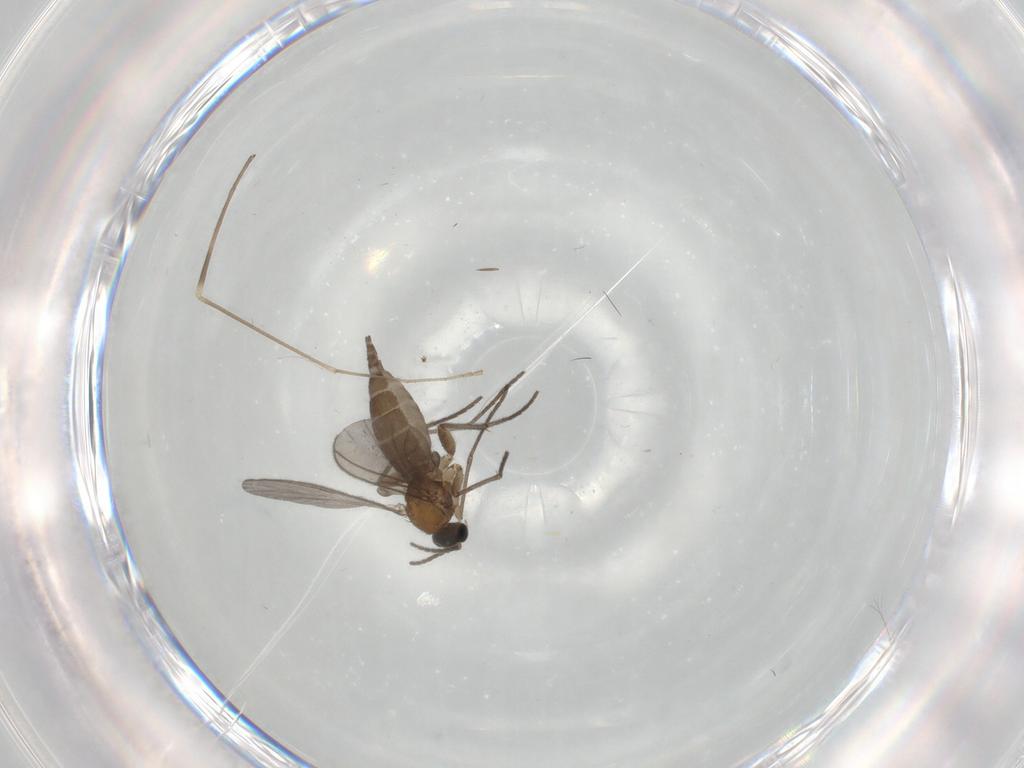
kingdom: Animalia
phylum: Arthropoda
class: Insecta
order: Diptera
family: Sciaridae
